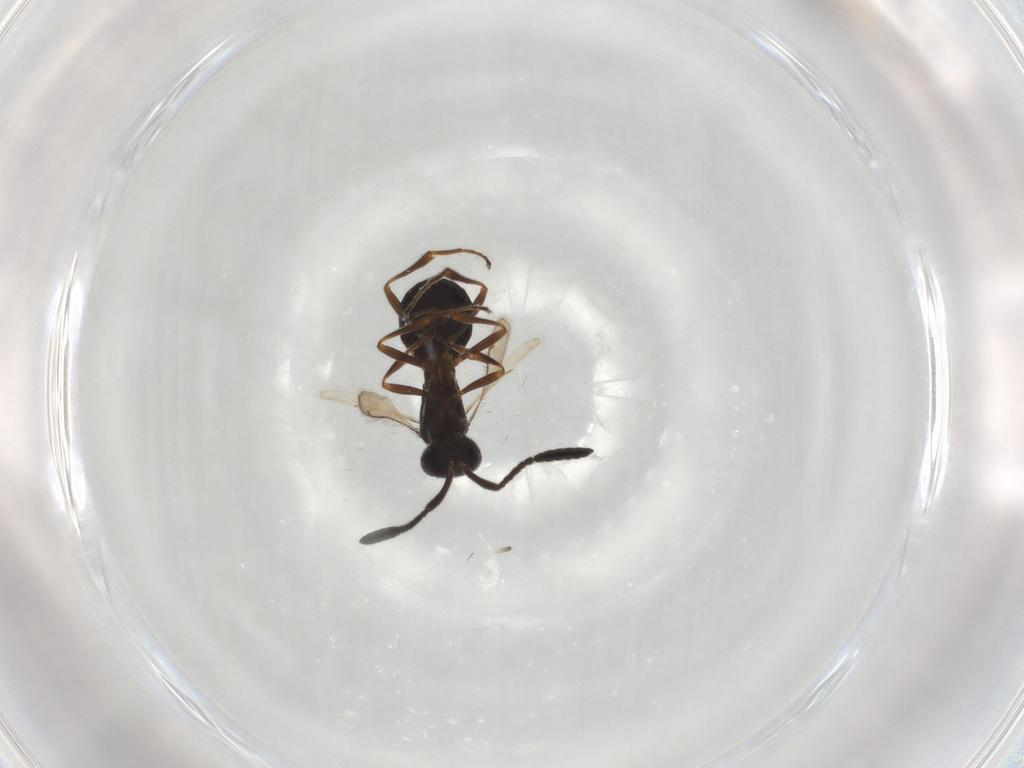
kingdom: Animalia
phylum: Arthropoda
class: Insecta
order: Hymenoptera
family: Scelionidae
